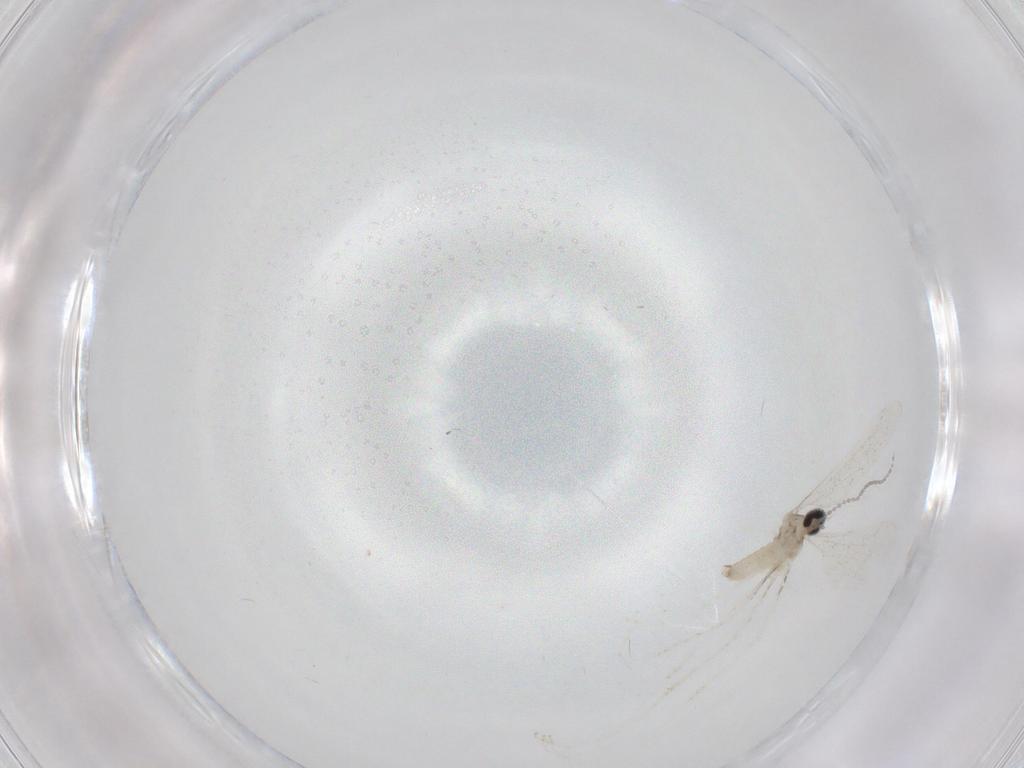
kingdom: Animalia
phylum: Arthropoda
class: Insecta
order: Diptera
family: Cecidomyiidae
